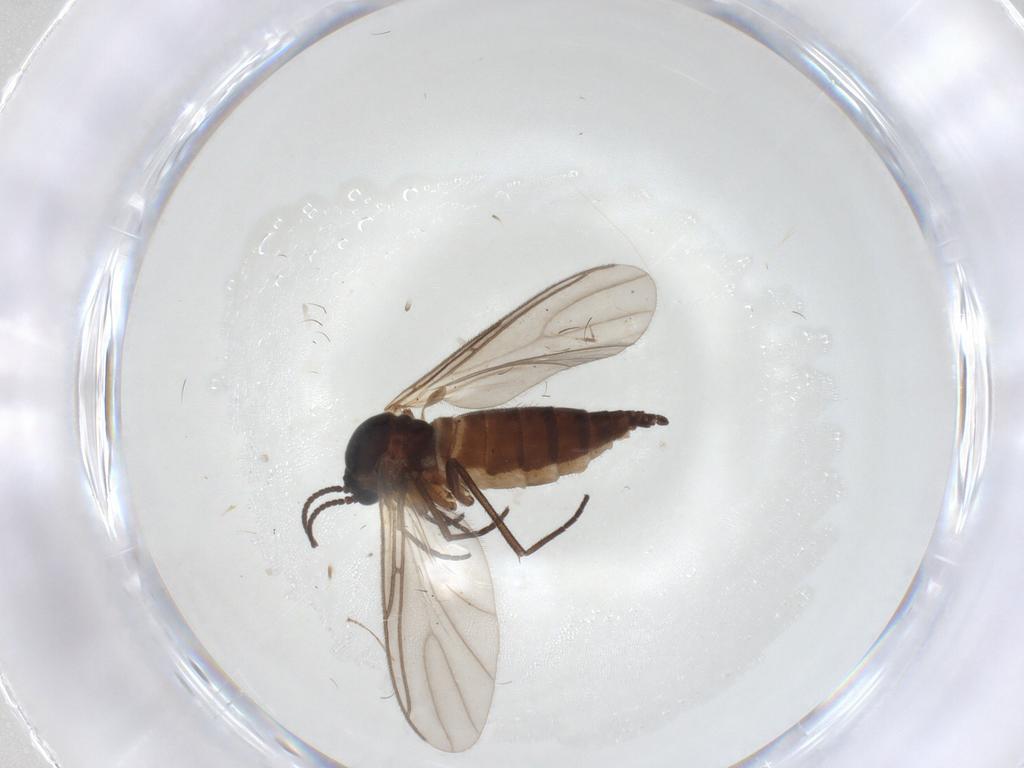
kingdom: Animalia
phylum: Arthropoda
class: Insecta
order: Diptera
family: Sciaridae
